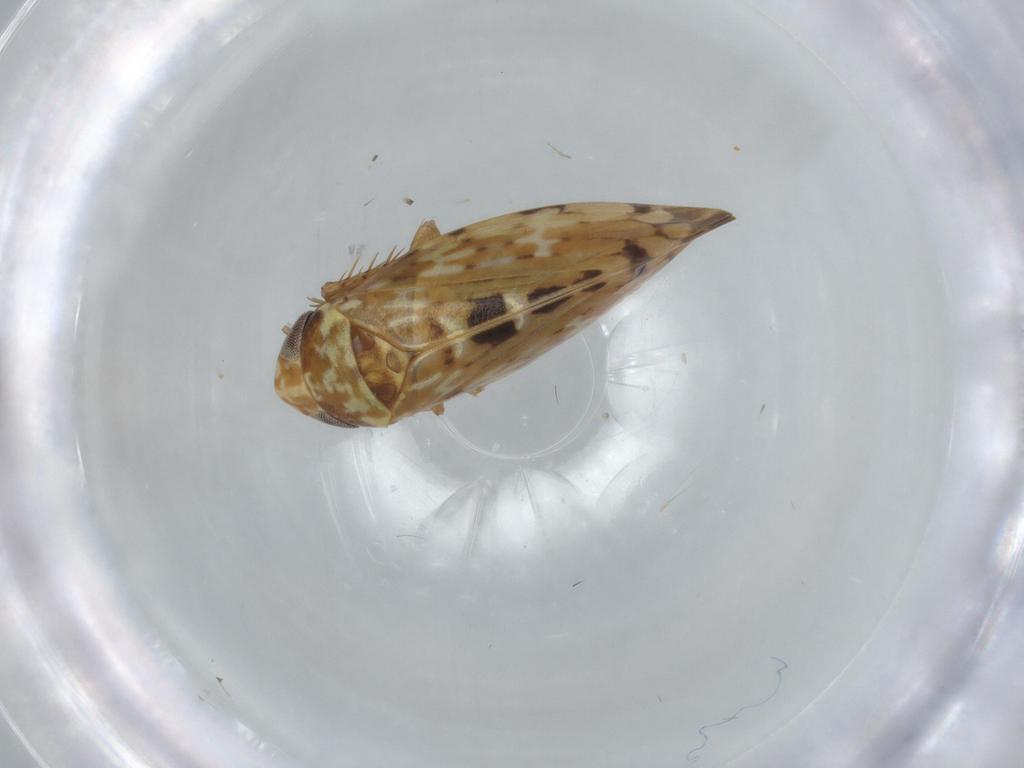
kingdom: Animalia
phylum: Arthropoda
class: Insecta
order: Hemiptera
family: Cicadellidae
